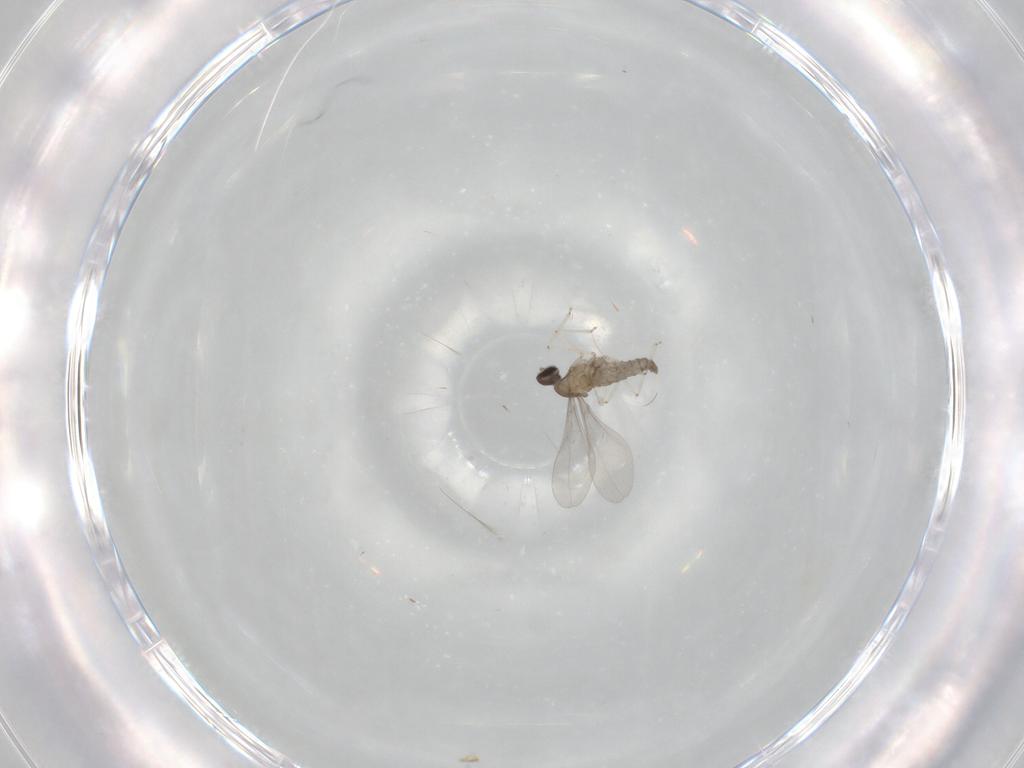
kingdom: Animalia
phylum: Arthropoda
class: Insecta
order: Diptera
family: Cecidomyiidae
